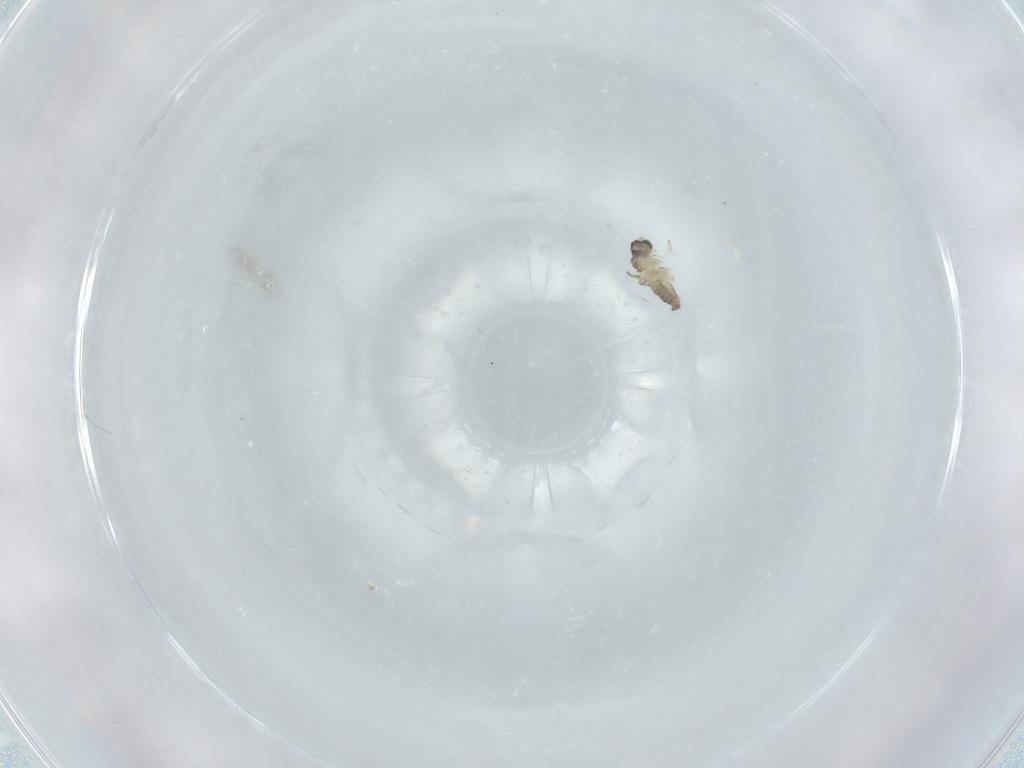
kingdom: Animalia
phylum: Arthropoda
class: Insecta
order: Diptera
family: Cecidomyiidae
